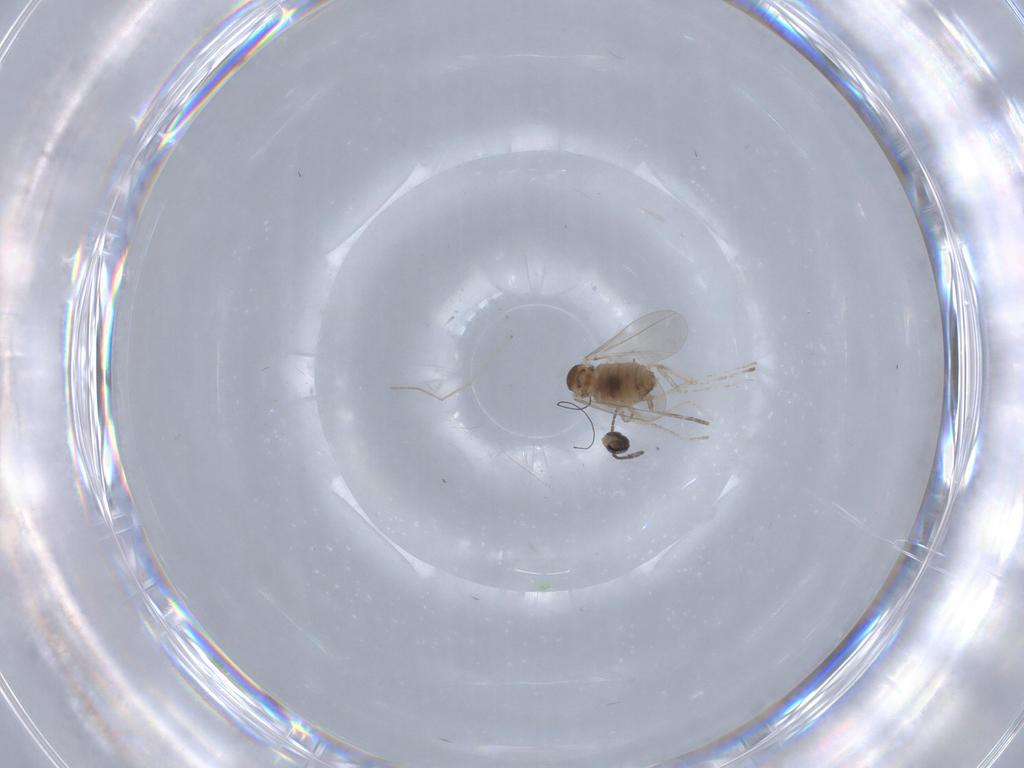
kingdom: Animalia
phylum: Arthropoda
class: Insecta
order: Diptera
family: Chironomidae
